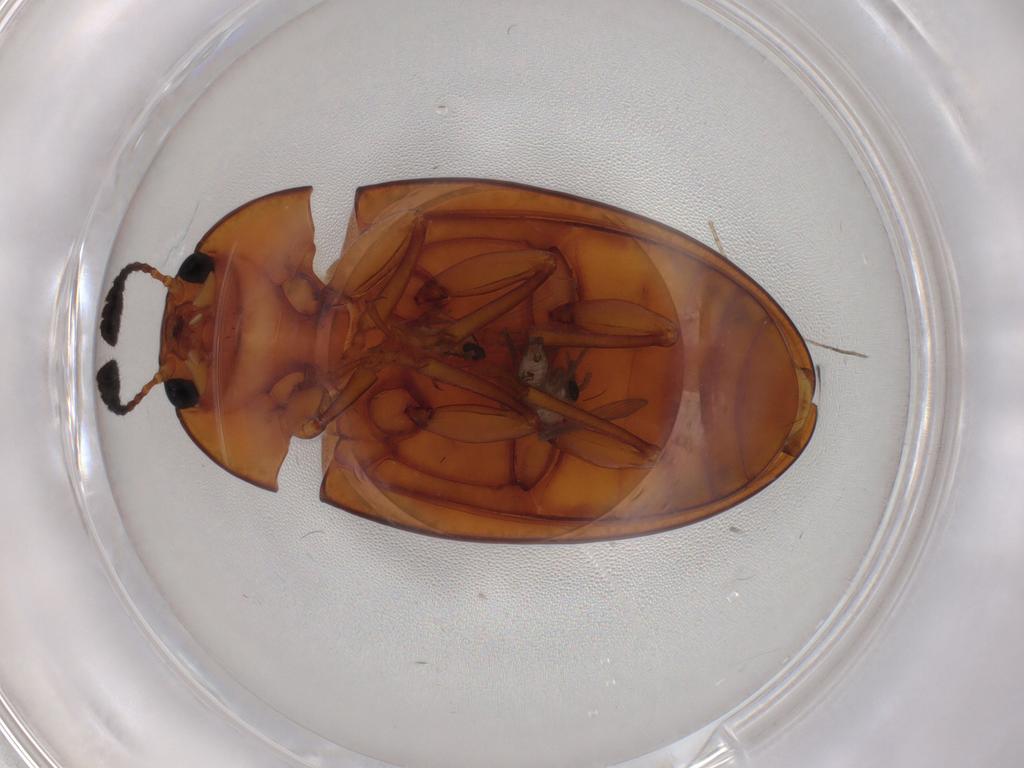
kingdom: Animalia
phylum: Arthropoda
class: Insecta
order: Coleoptera
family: Erotylidae
